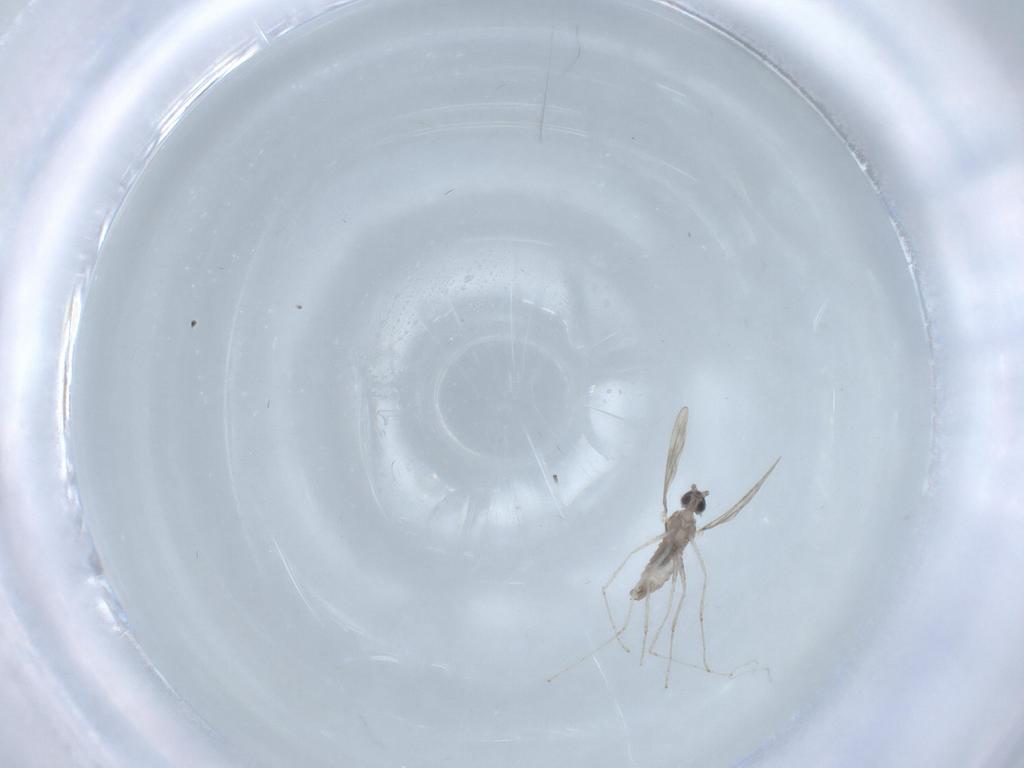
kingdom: Animalia
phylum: Arthropoda
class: Insecta
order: Diptera
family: Cecidomyiidae
